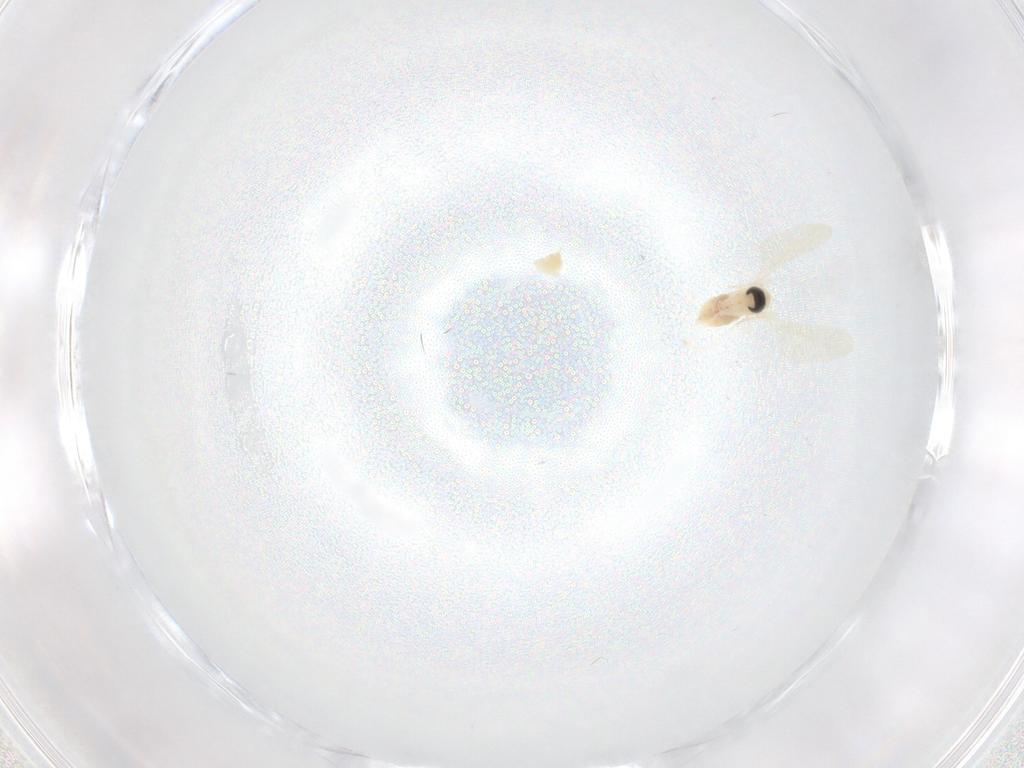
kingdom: Animalia
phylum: Arthropoda
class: Insecta
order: Diptera
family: Cecidomyiidae
